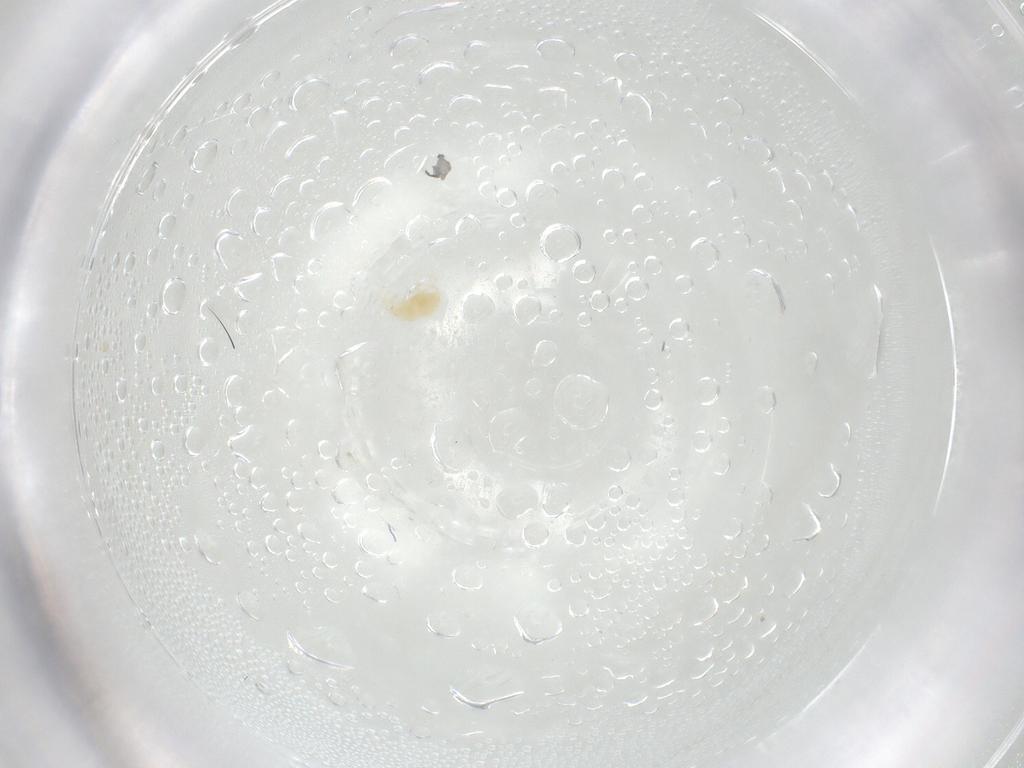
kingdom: Animalia
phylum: Arthropoda
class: Arachnida
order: Trombidiformes
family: Tetranychidae
